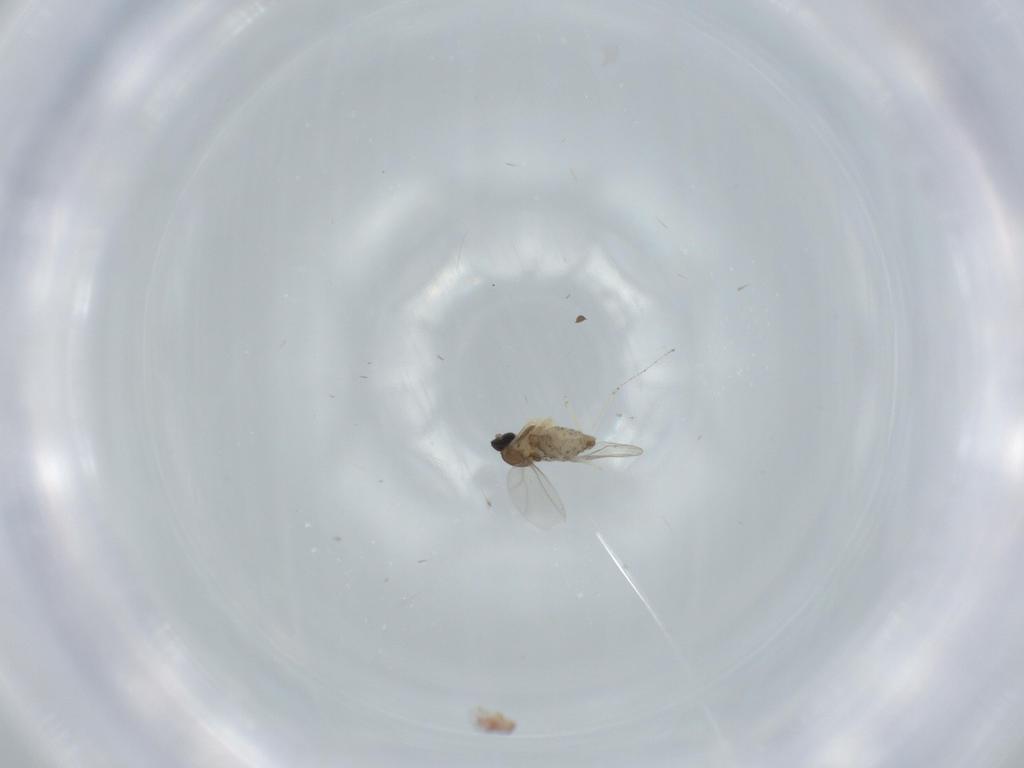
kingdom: Animalia
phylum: Arthropoda
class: Insecta
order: Diptera
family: Cecidomyiidae
